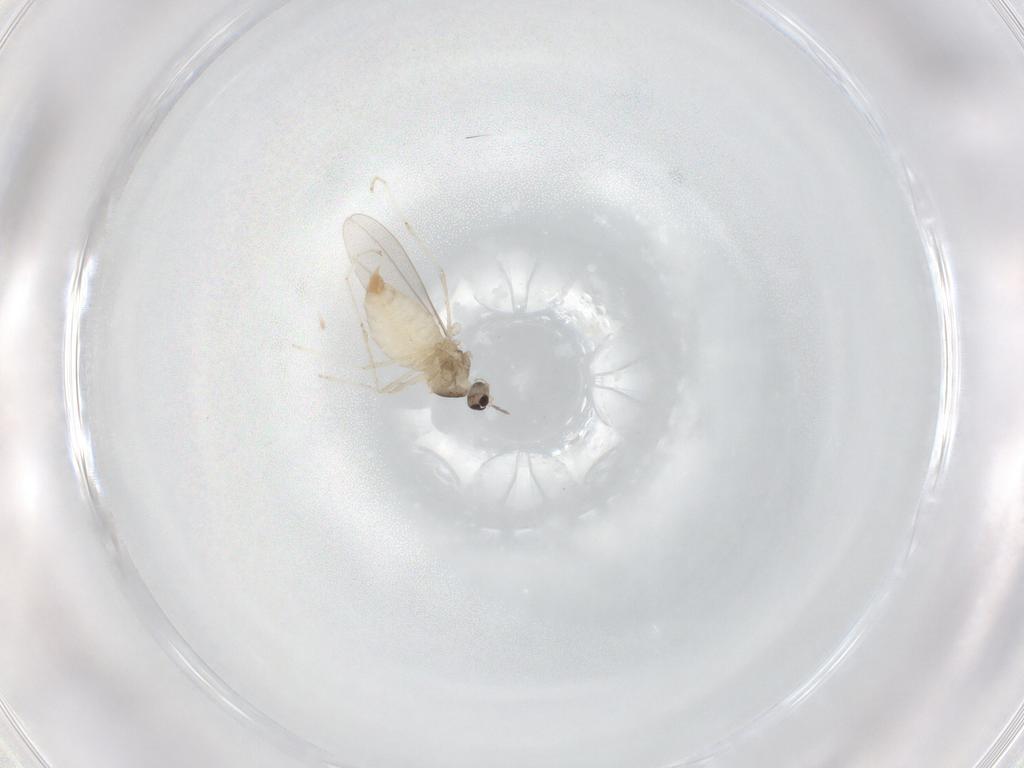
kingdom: Animalia
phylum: Arthropoda
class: Insecta
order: Diptera
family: Cecidomyiidae
